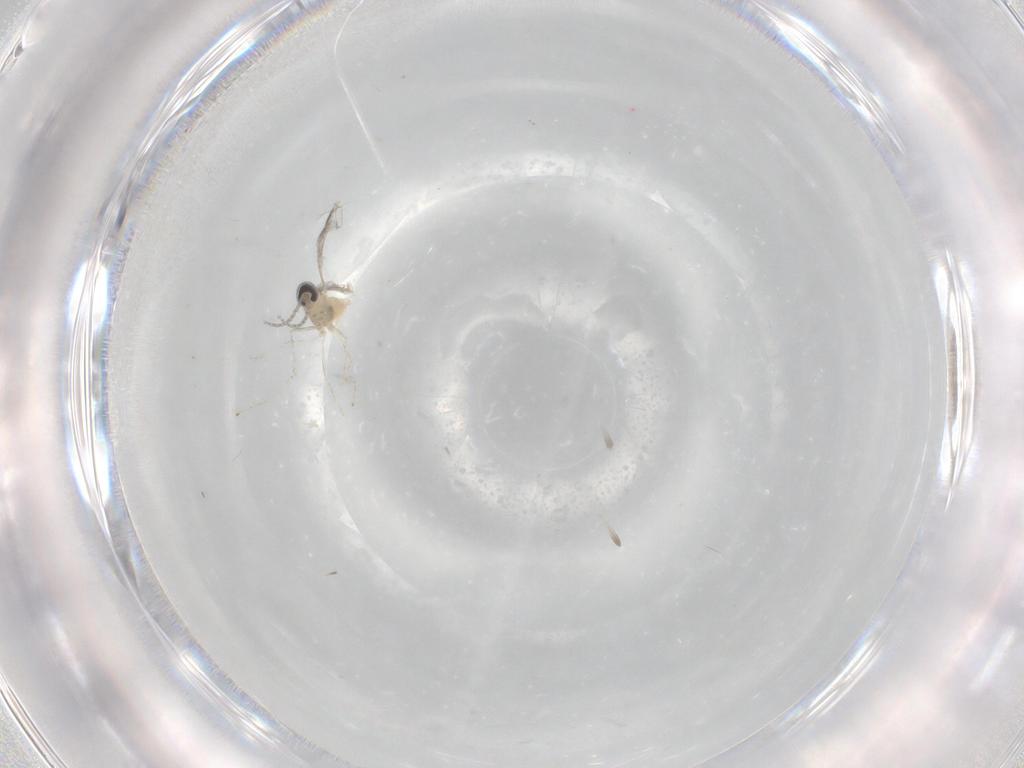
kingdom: Animalia
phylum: Arthropoda
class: Insecta
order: Diptera
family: Cecidomyiidae
